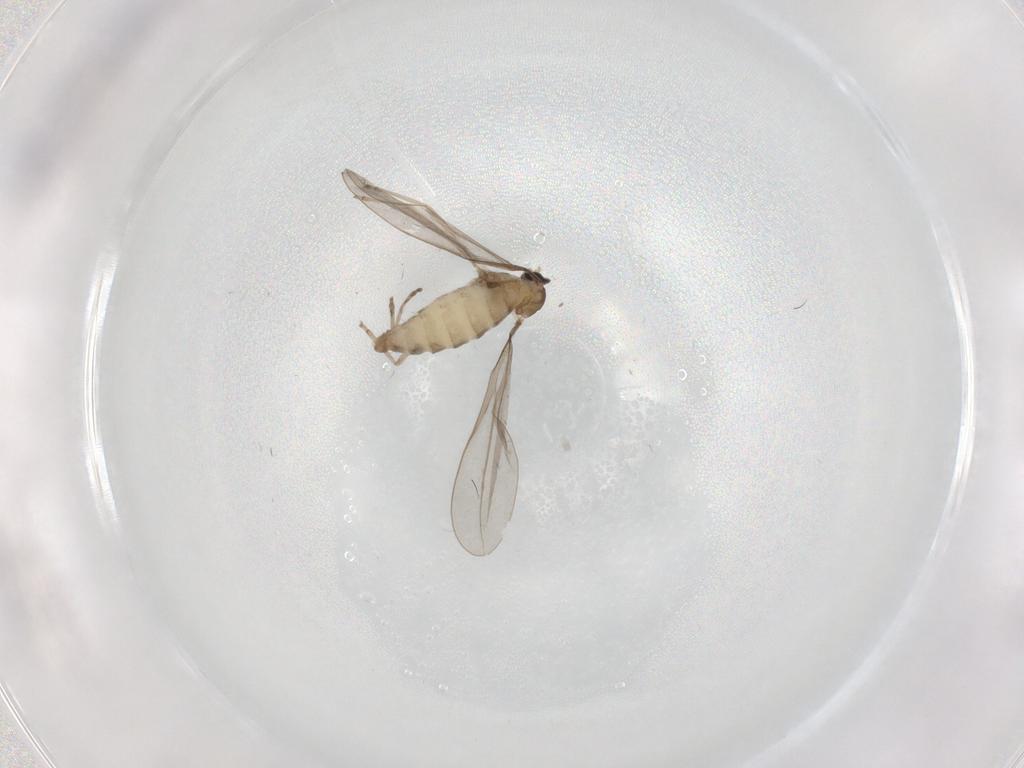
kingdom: Animalia
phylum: Arthropoda
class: Insecta
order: Diptera
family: Cecidomyiidae
